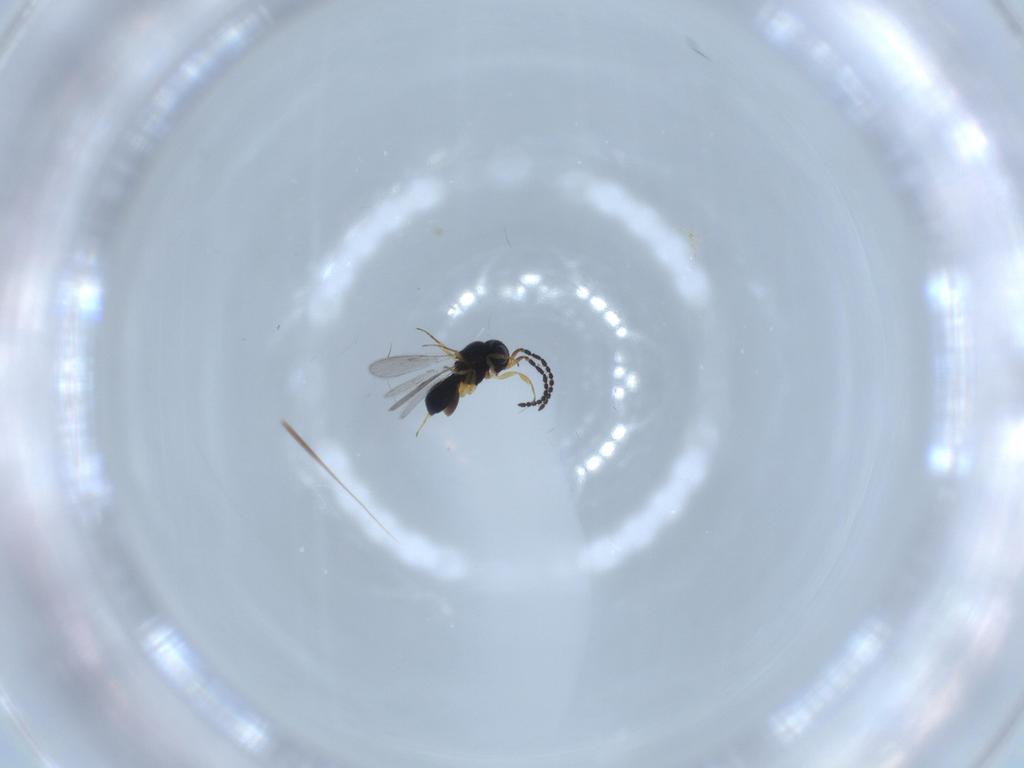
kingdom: Animalia
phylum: Arthropoda
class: Insecta
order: Hymenoptera
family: Scelionidae
